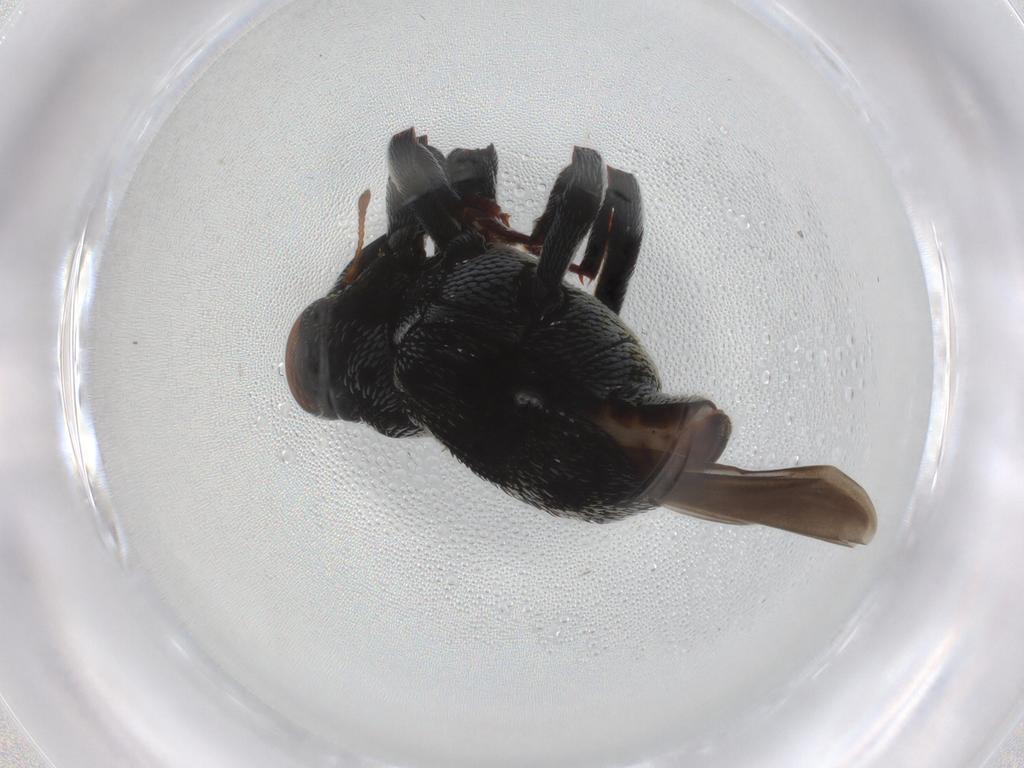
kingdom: Animalia
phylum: Arthropoda
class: Insecta
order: Coleoptera
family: Curculionidae
